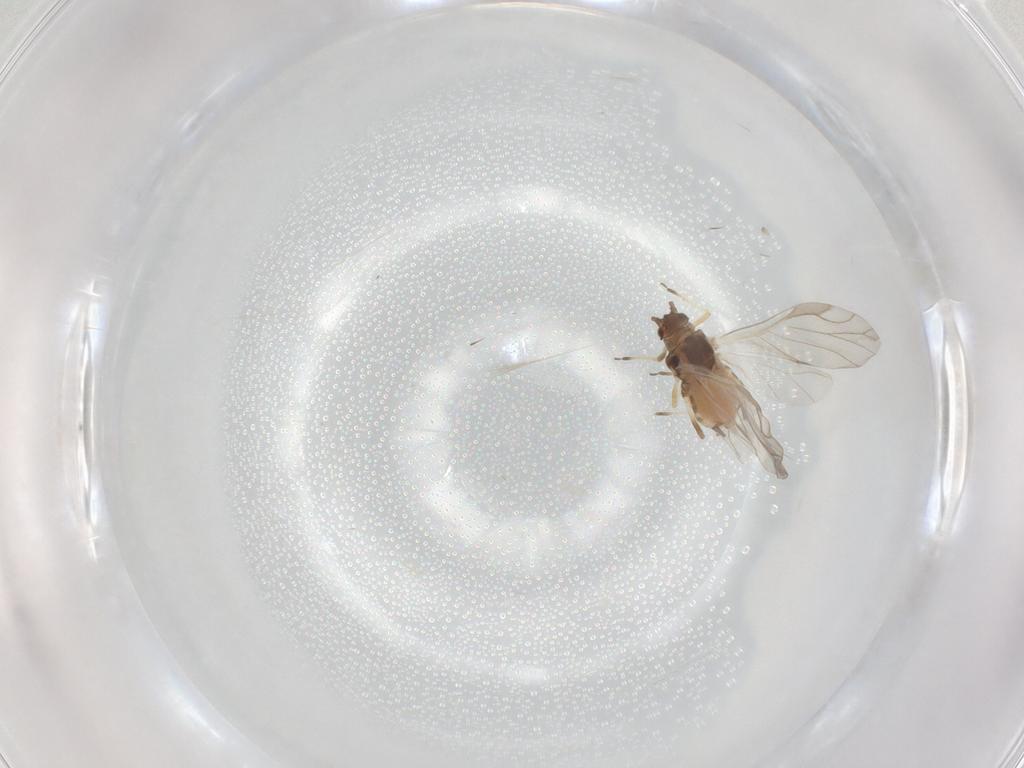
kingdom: Animalia
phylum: Arthropoda
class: Insecta
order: Hemiptera
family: Aphididae
